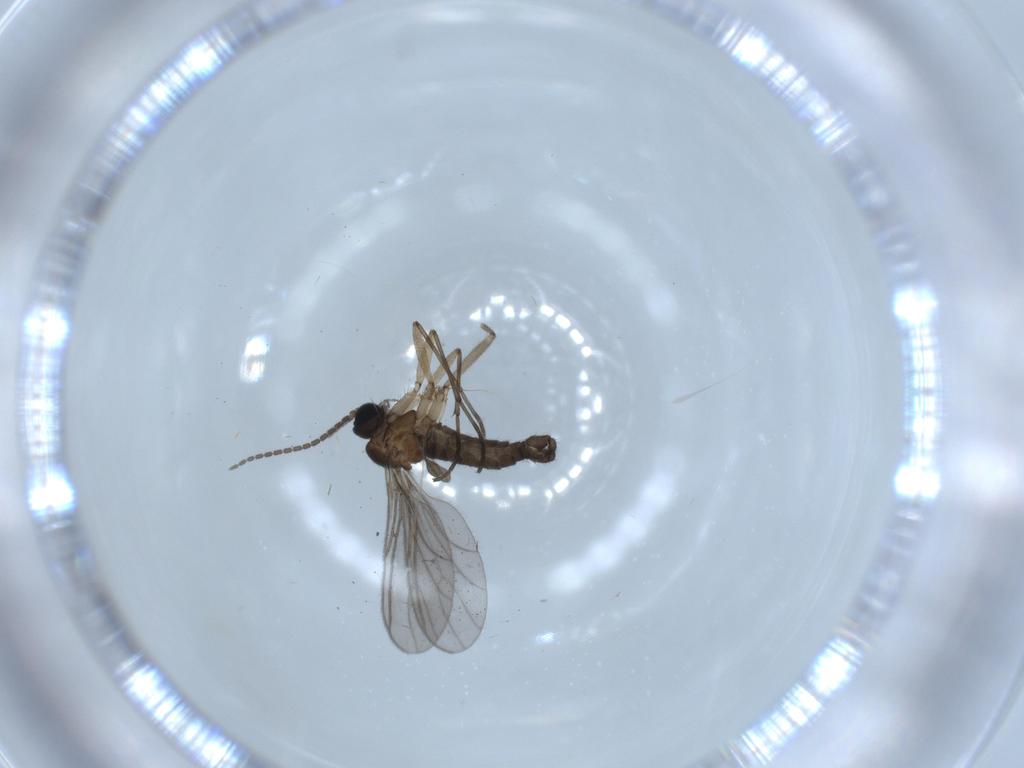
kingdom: Animalia
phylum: Arthropoda
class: Insecta
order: Diptera
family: Sciaridae
